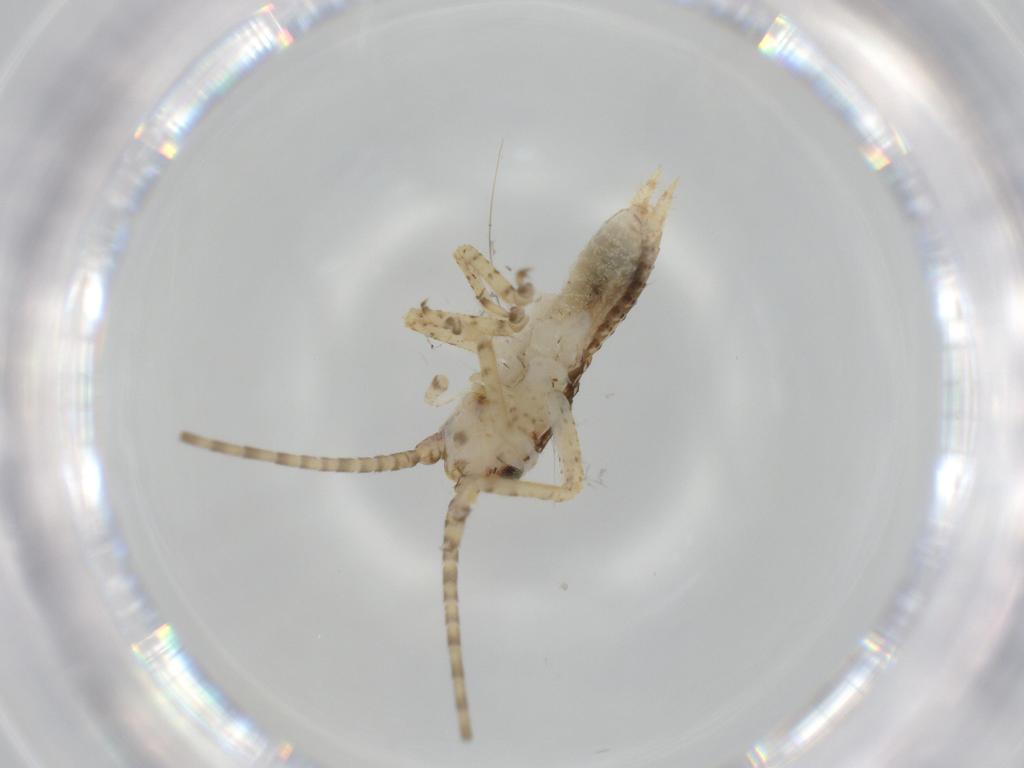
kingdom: Animalia
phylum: Arthropoda
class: Insecta
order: Orthoptera
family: Gryllidae
